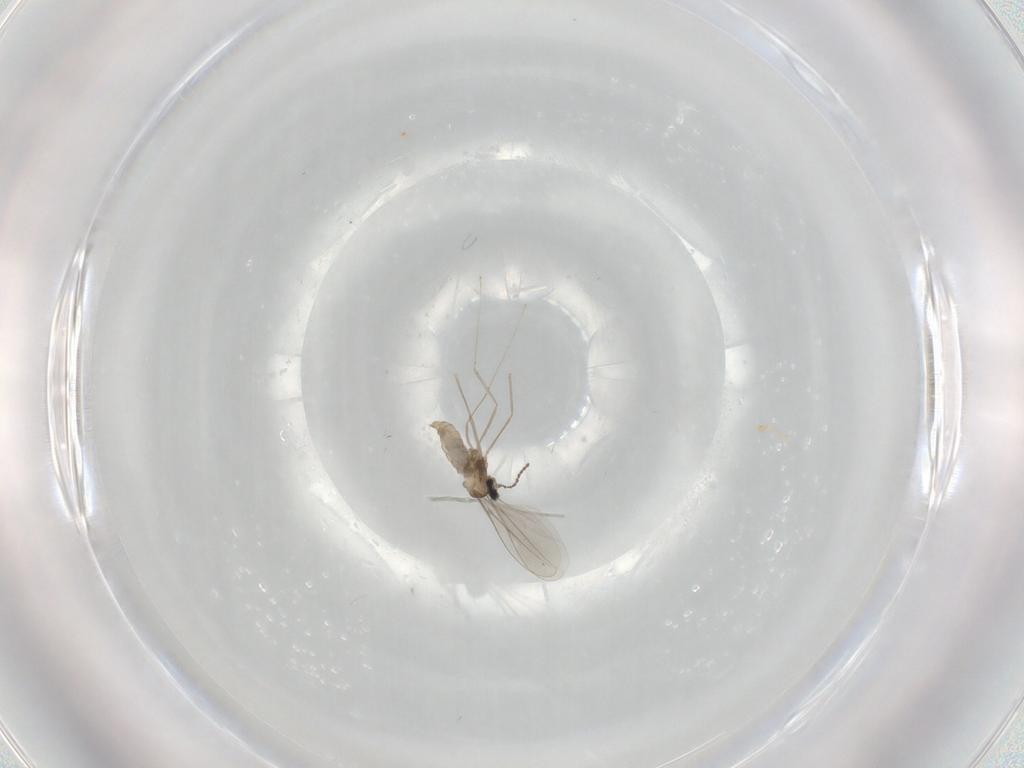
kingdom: Animalia
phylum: Arthropoda
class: Insecta
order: Diptera
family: Cecidomyiidae
